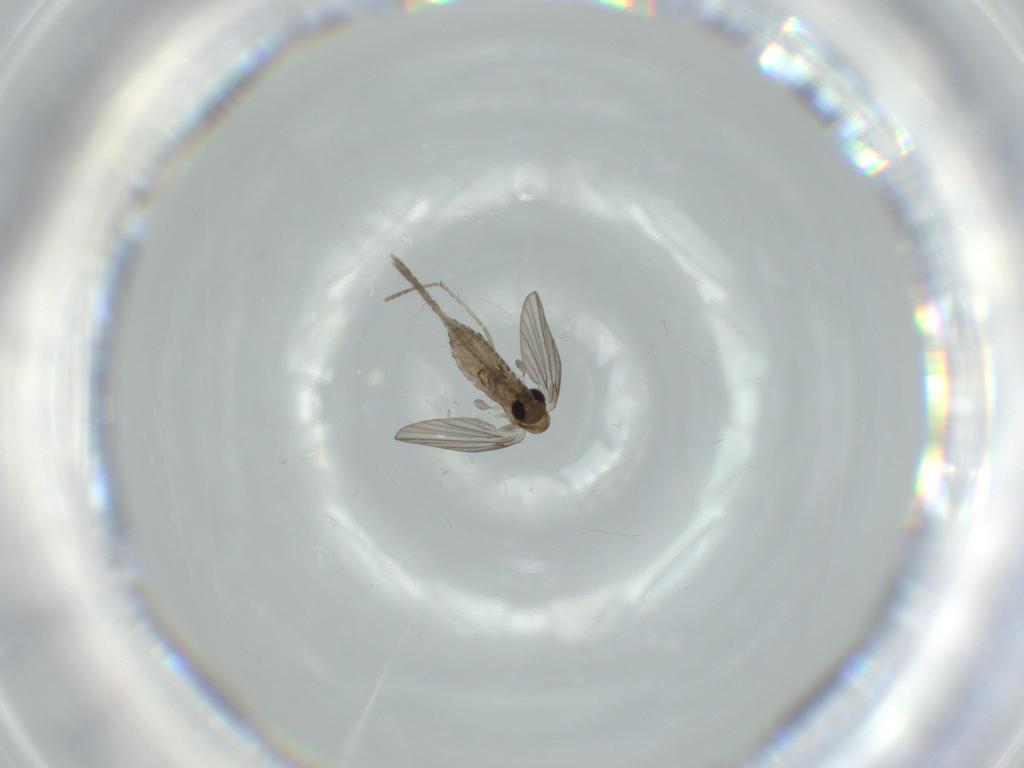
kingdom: Animalia
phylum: Arthropoda
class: Insecta
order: Diptera
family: Psychodidae
